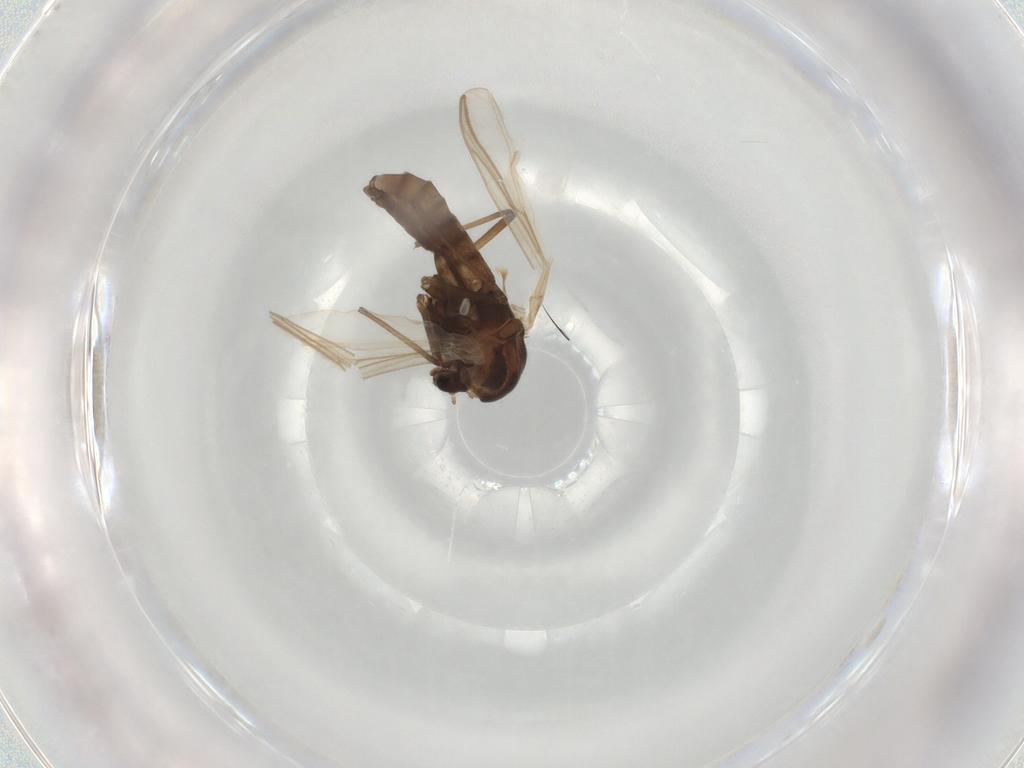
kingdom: Animalia
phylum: Arthropoda
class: Insecta
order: Diptera
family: Chironomidae
